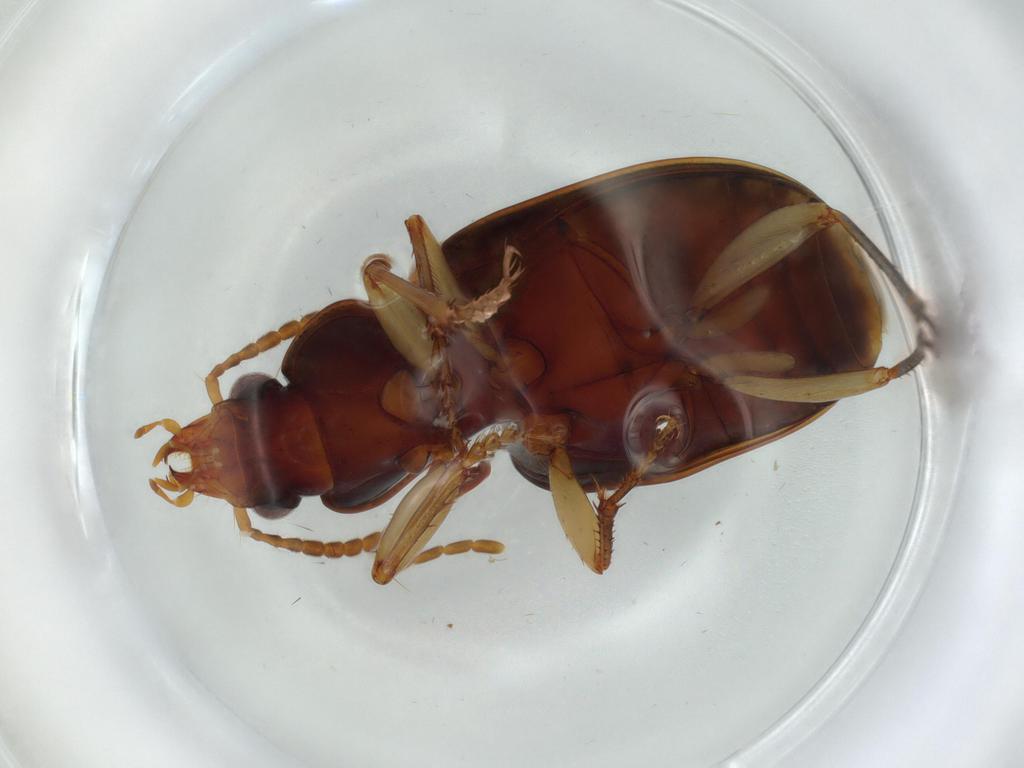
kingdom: Animalia
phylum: Arthropoda
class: Insecta
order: Coleoptera
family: Carabidae
